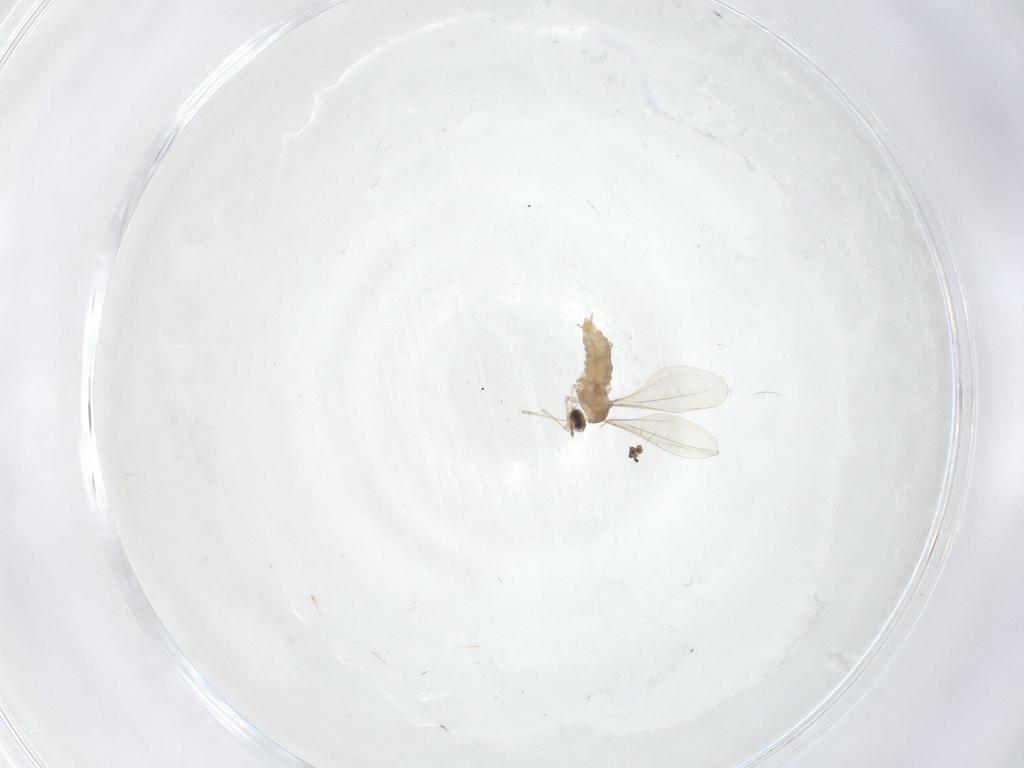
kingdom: Animalia
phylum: Arthropoda
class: Insecta
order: Diptera
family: Cecidomyiidae
